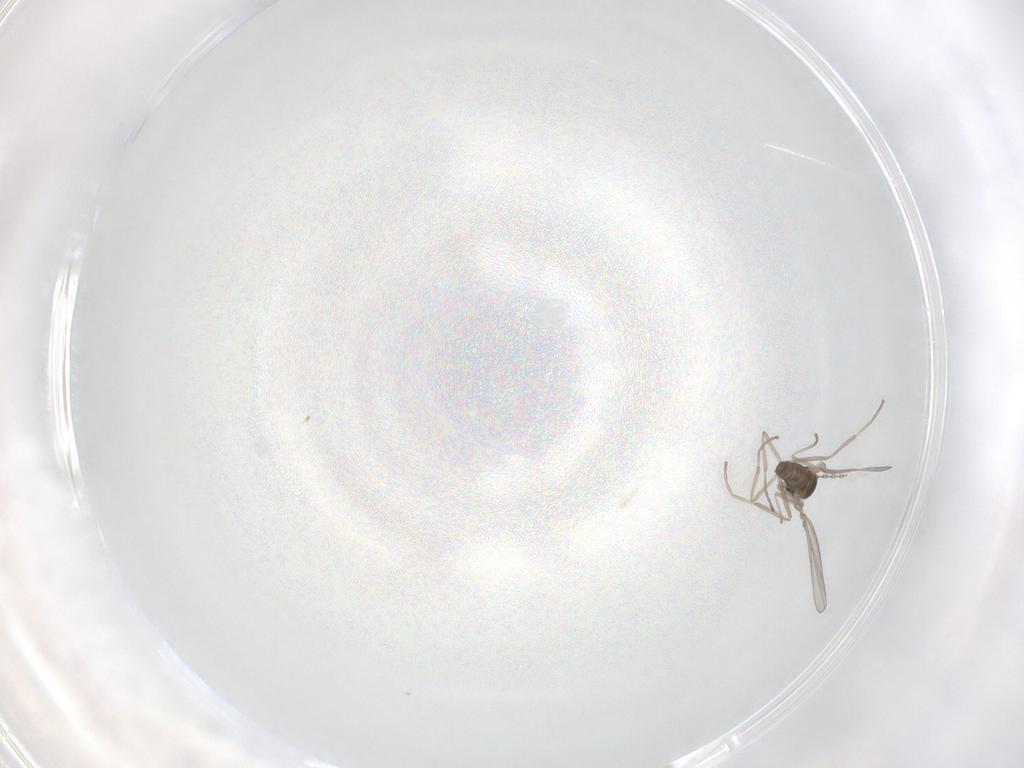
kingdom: Animalia
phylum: Arthropoda
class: Insecta
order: Diptera
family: Cecidomyiidae
